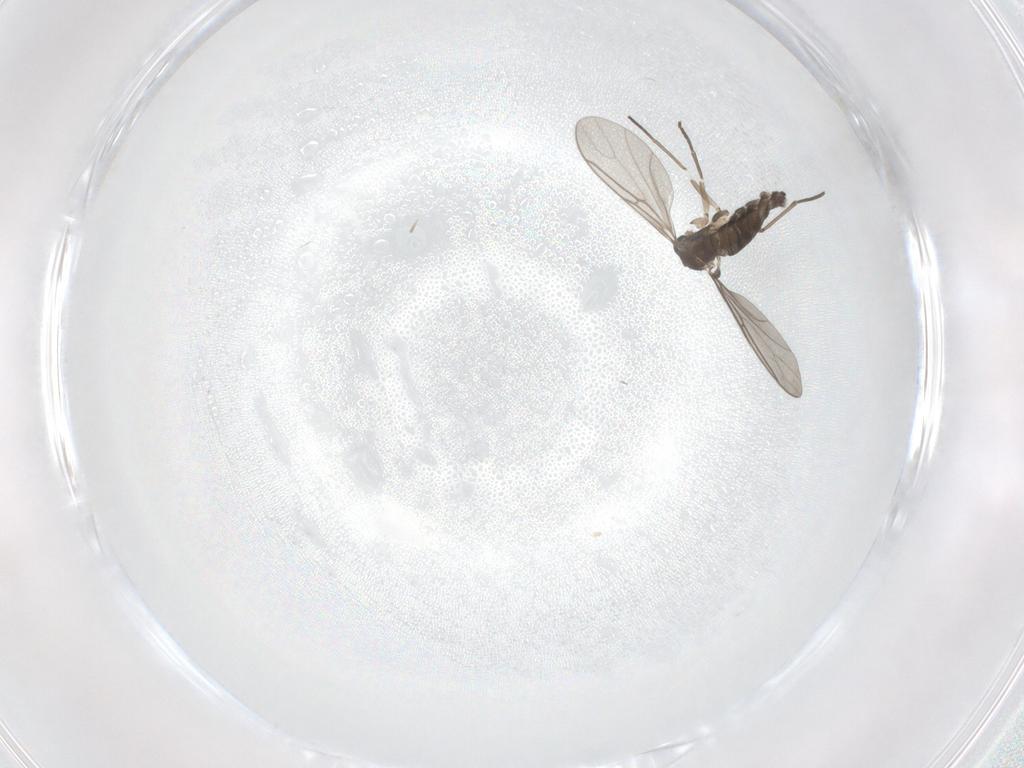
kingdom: Animalia
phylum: Arthropoda
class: Insecta
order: Diptera
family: Sciaridae
